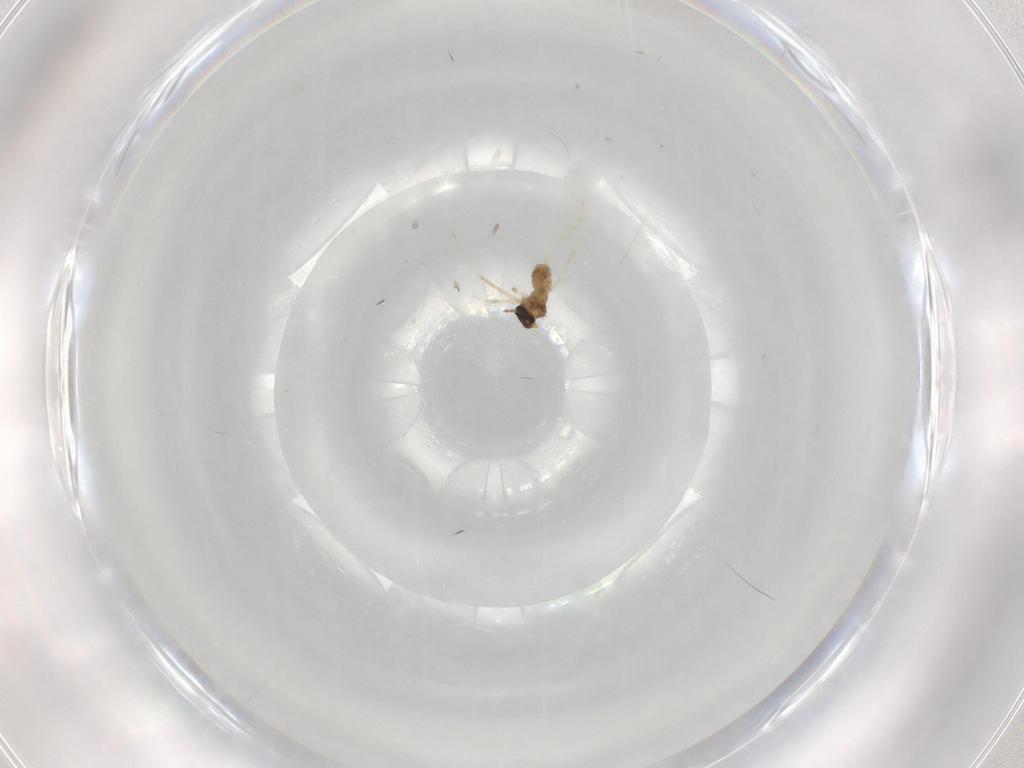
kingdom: Animalia
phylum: Arthropoda
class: Insecta
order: Diptera
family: Cecidomyiidae
